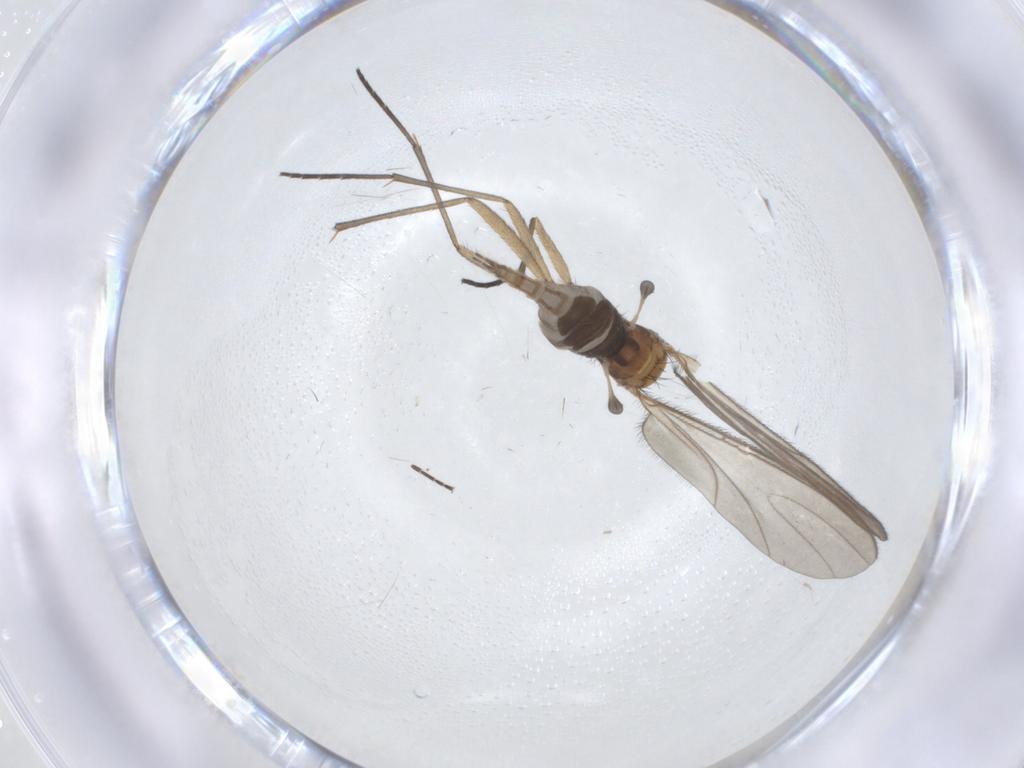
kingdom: Animalia
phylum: Arthropoda
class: Insecta
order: Diptera
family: Sciaridae
